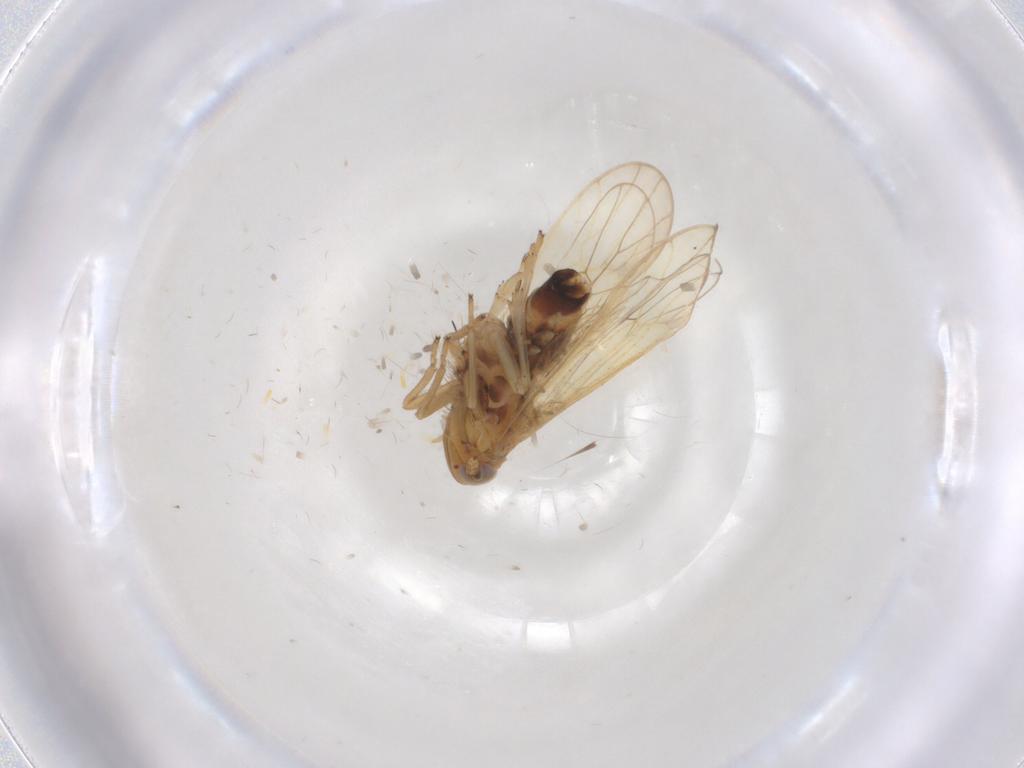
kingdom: Animalia
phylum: Arthropoda
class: Insecta
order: Hemiptera
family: Delphacidae
